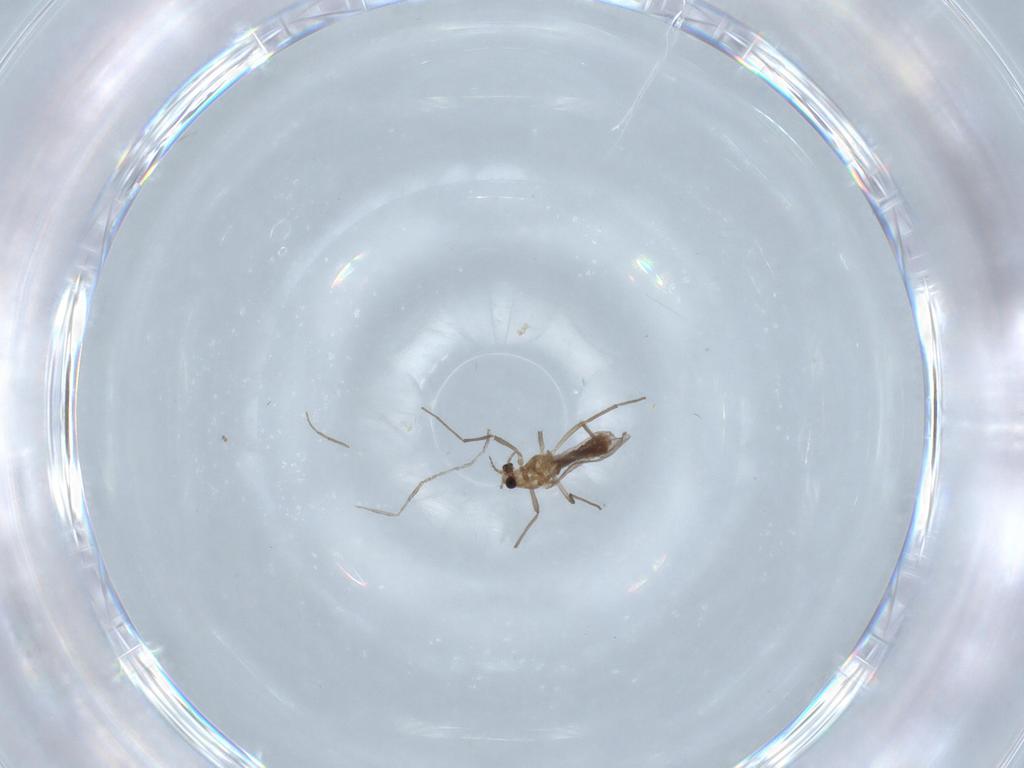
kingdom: Animalia
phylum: Arthropoda
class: Insecta
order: Diptera
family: Chironomidae
